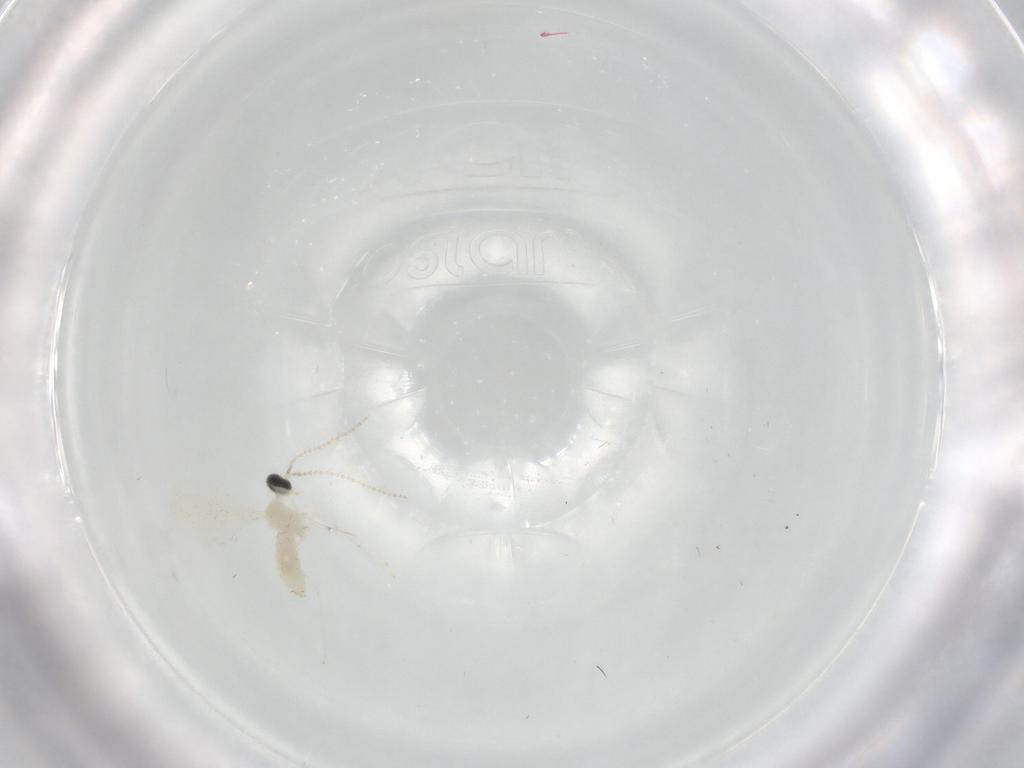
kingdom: Animalia
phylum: Arthropoda
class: Insecta
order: Diptera
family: Cecidomyiidae
